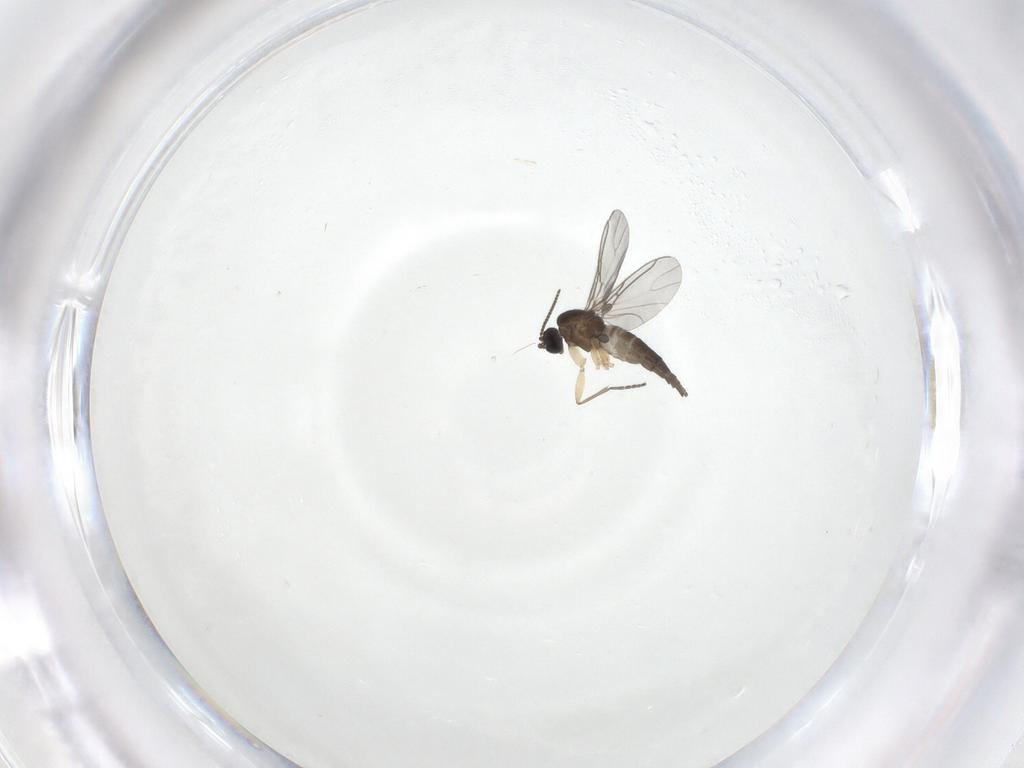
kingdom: Animalia
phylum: Arthropoda
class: Insecta
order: Diptera
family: Sciaridae
